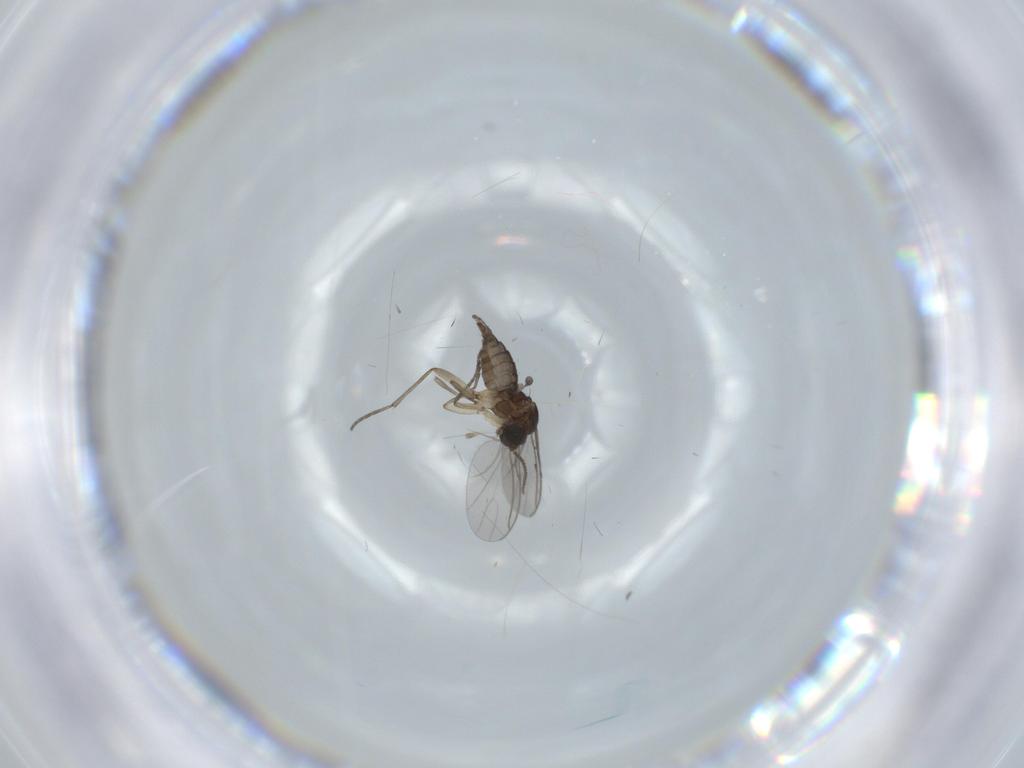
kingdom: Animalia
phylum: Arthropoda
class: Insecta
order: Diptera
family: Sciaridae
